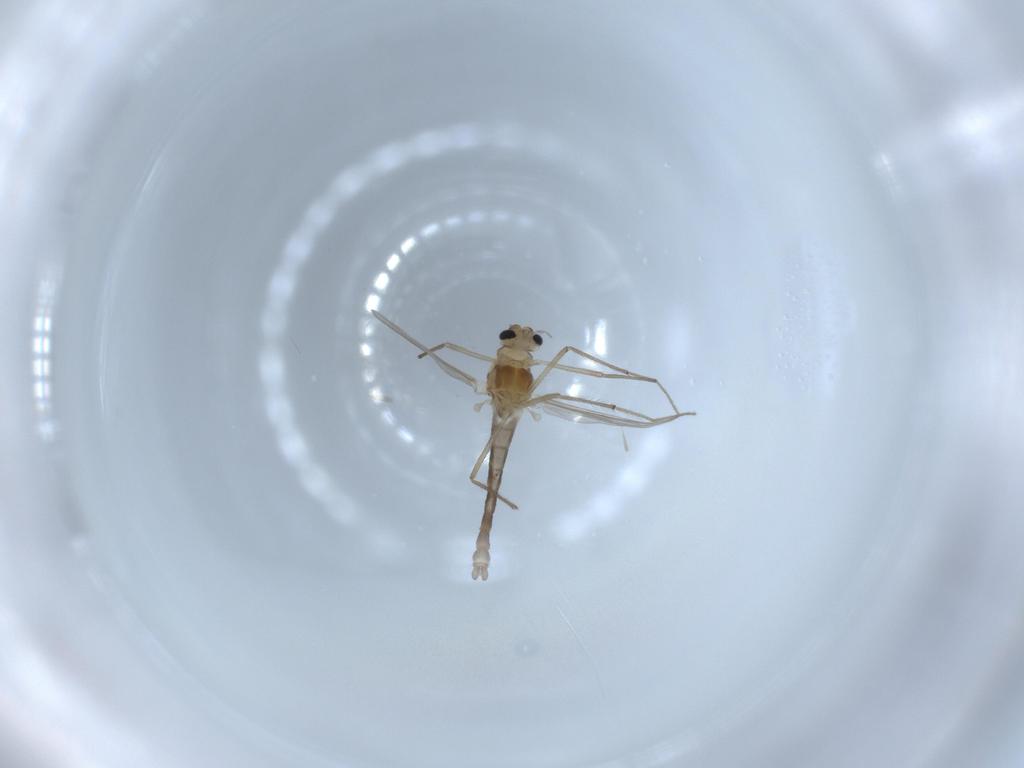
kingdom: Animalia
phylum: Arthropoda
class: Insecta
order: Diptera
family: Chironomidae
